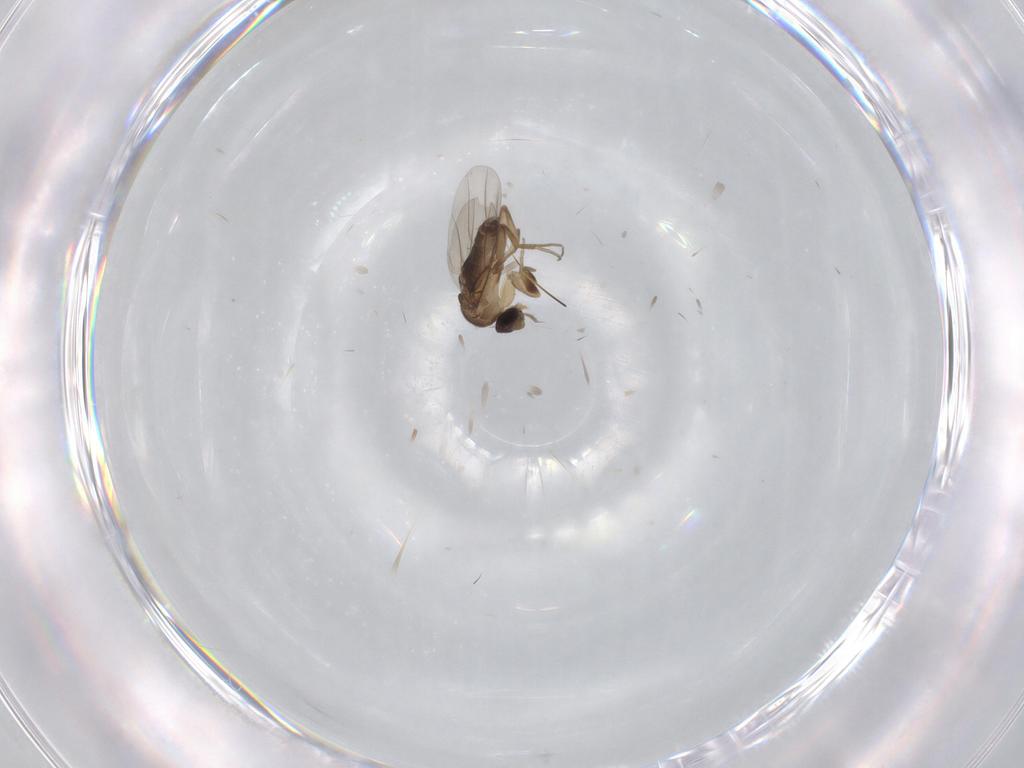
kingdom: Animalia
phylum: Arthropoda
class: Insecta
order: Diptera
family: Phoridae
